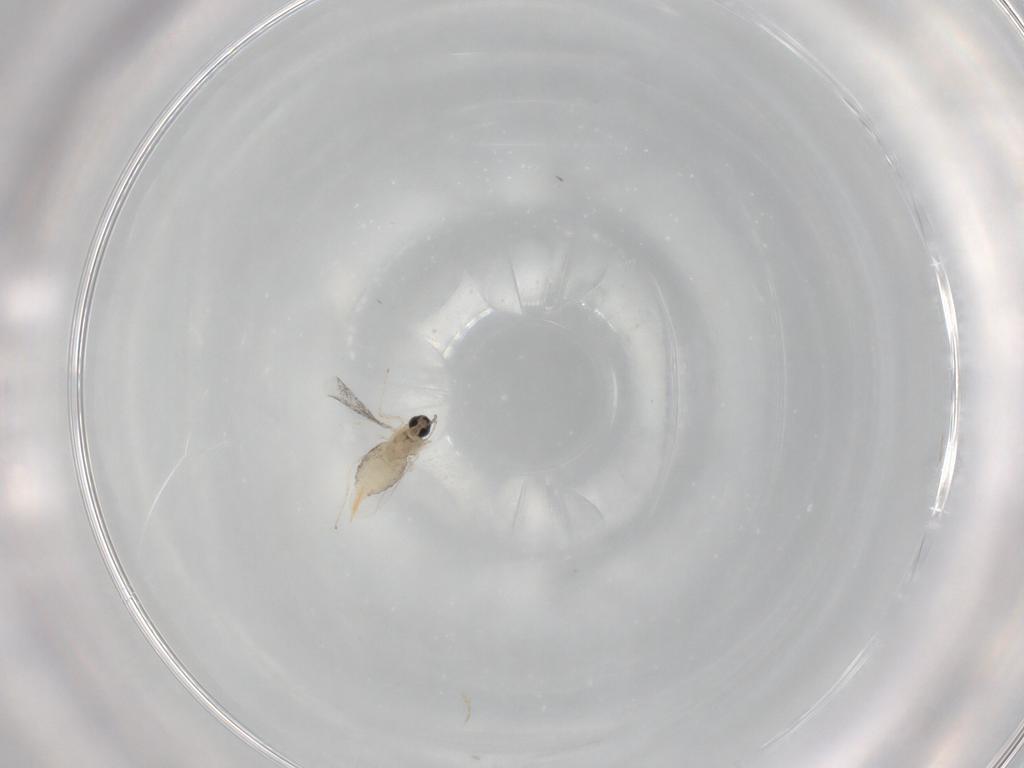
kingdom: Animalia
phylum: Arthropoda
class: Insecta
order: Diptera
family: Cecidomyiidae
